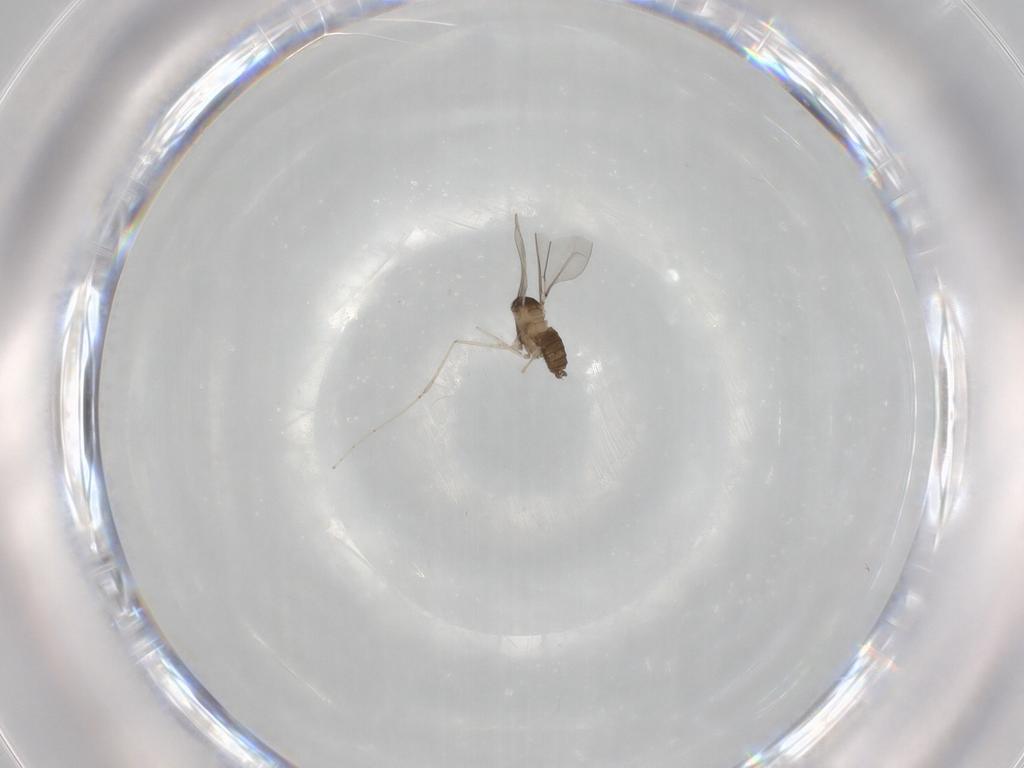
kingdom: Animalia
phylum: Arthropoda
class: Insecta
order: Diptera
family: Cecidomyiidae
